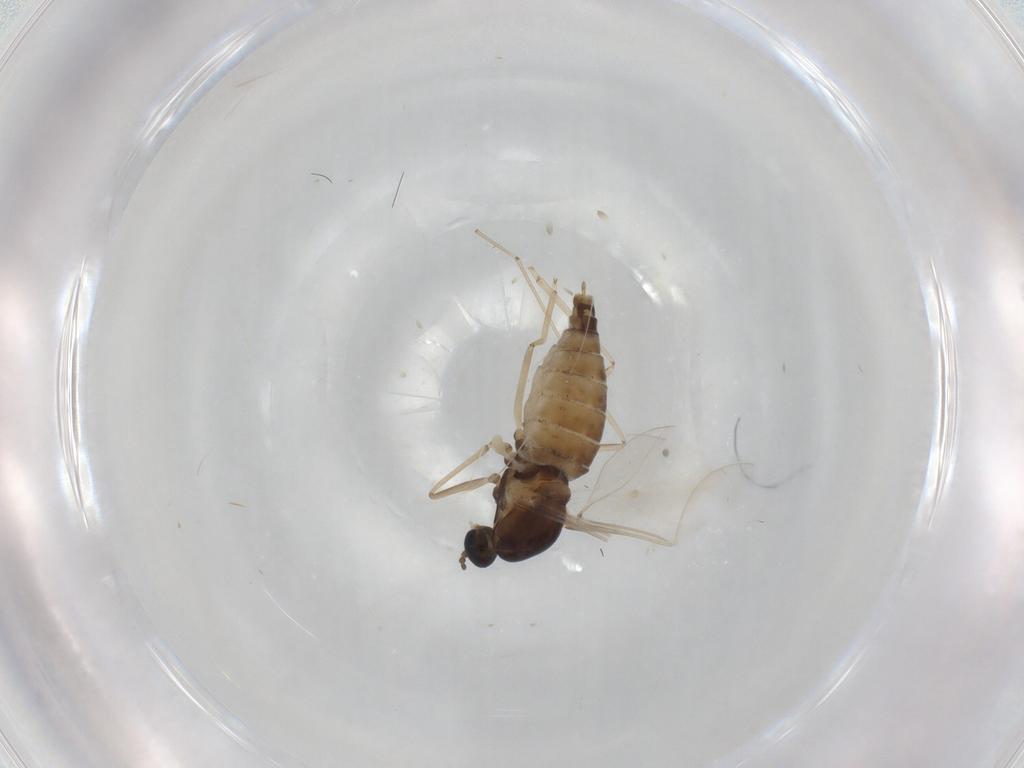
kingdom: Animalia
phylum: Arthropoda
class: Insecta
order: Diptera
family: Cecidomyiidae
